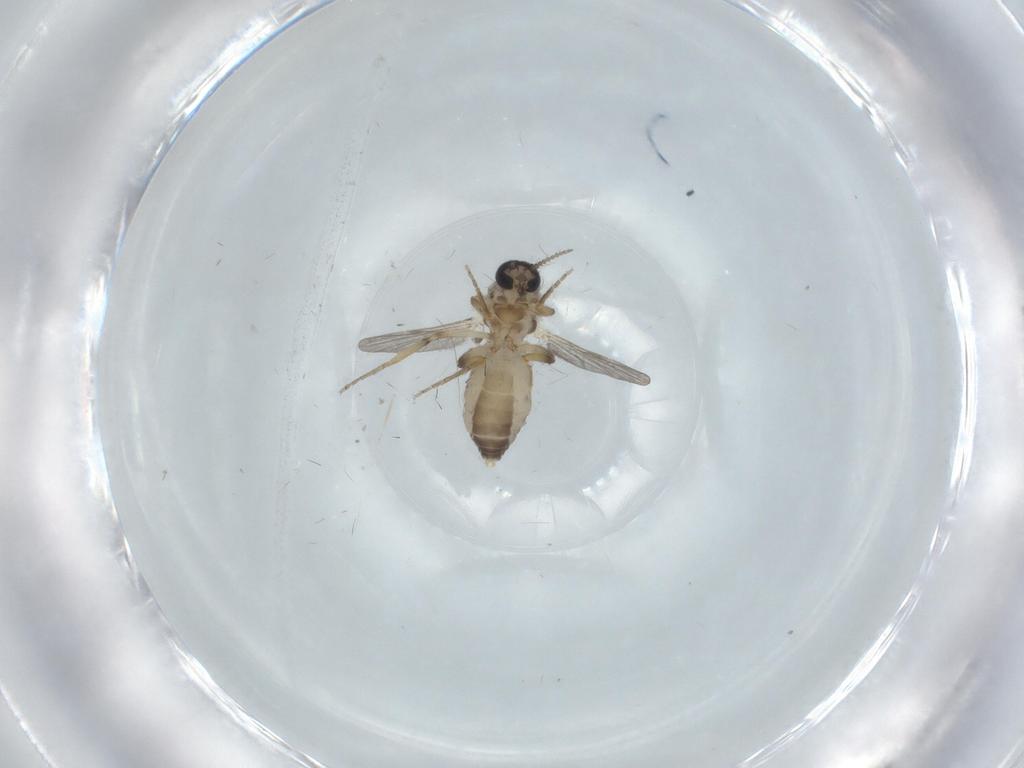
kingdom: Animalia
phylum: Arthropoda
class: Insecta
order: Diptera
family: Ceratopogonidae
